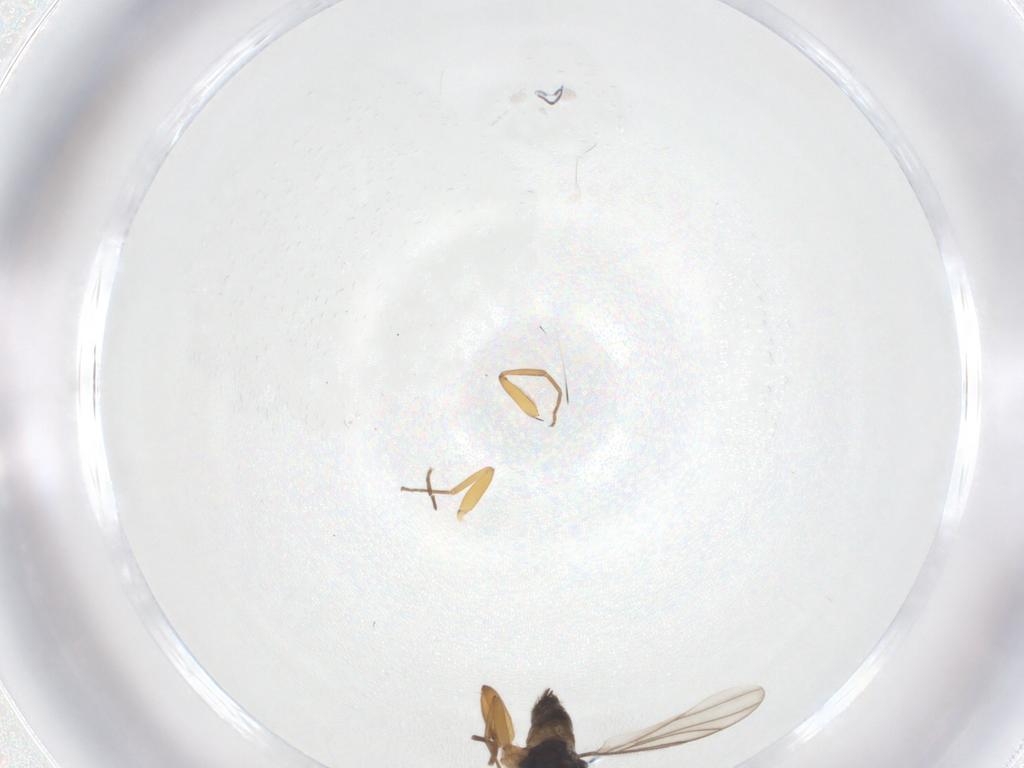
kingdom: Animalia
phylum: Arthropoda
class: Insecta
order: Diptera
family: Hybotidae
